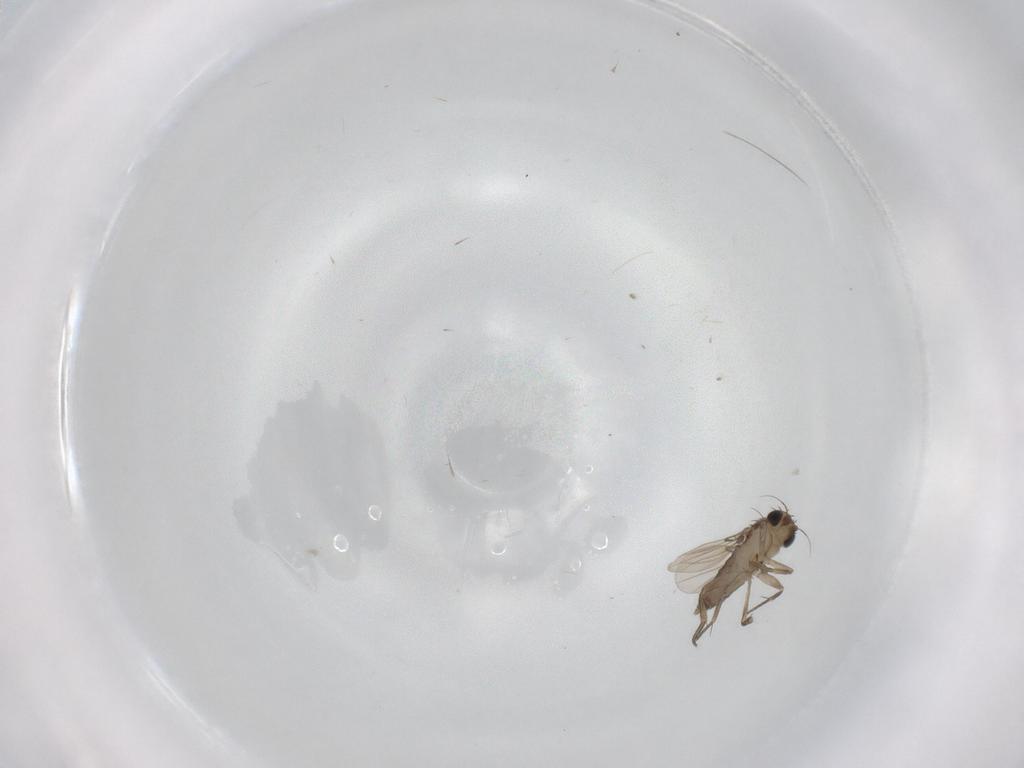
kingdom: Animalia
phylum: Arthropoda
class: Insecta
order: Diptera
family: Phoridae
